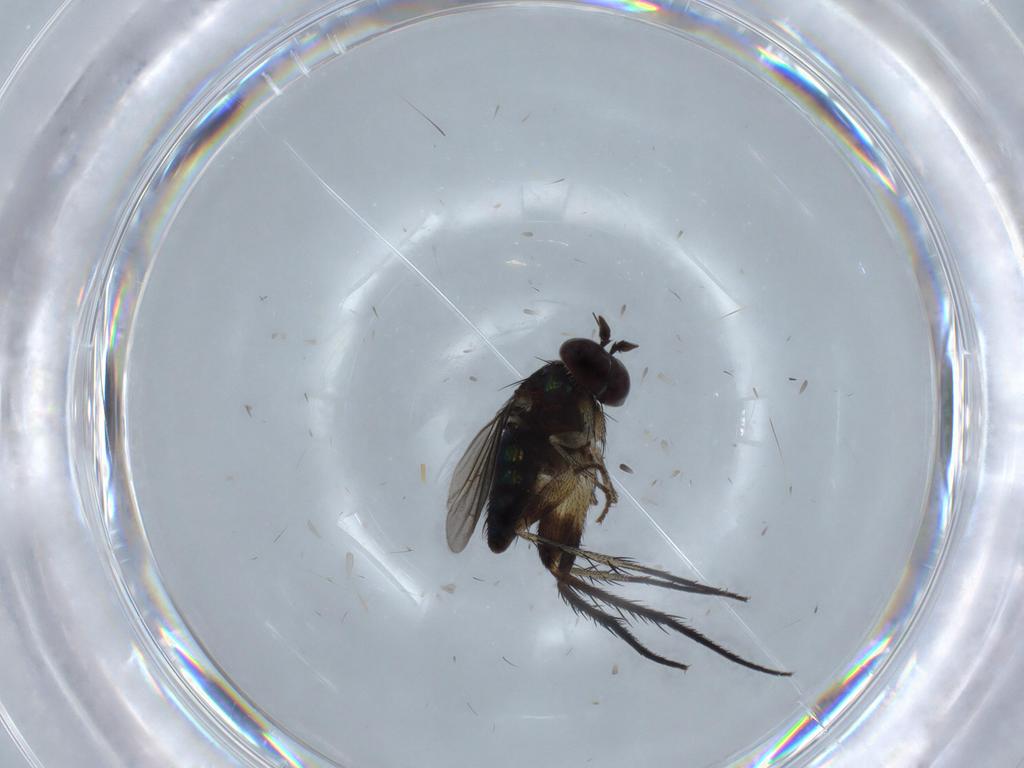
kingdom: Animalia
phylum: Arthropoda
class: Insecta
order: Diptera
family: Dolichopodidae
